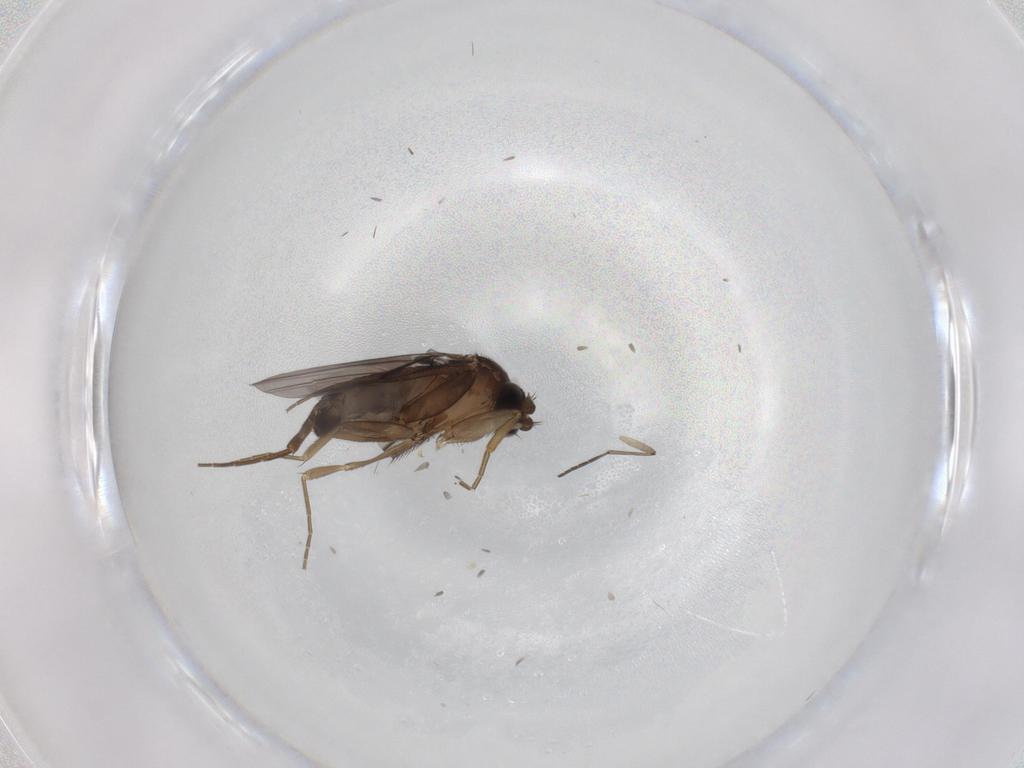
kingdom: Animalia
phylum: Arthropoda
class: Insecta
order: Diptera
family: Phoridae
